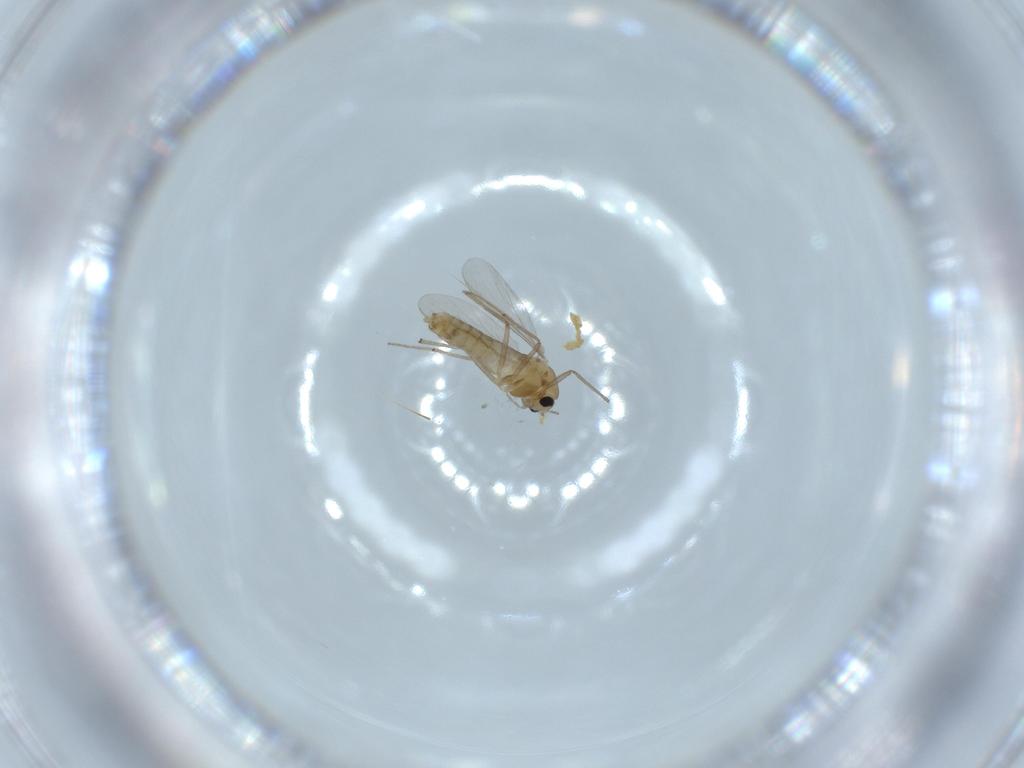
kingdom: Animalia
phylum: Arthropoda
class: Insecta
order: Diptera
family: Chironomidae
